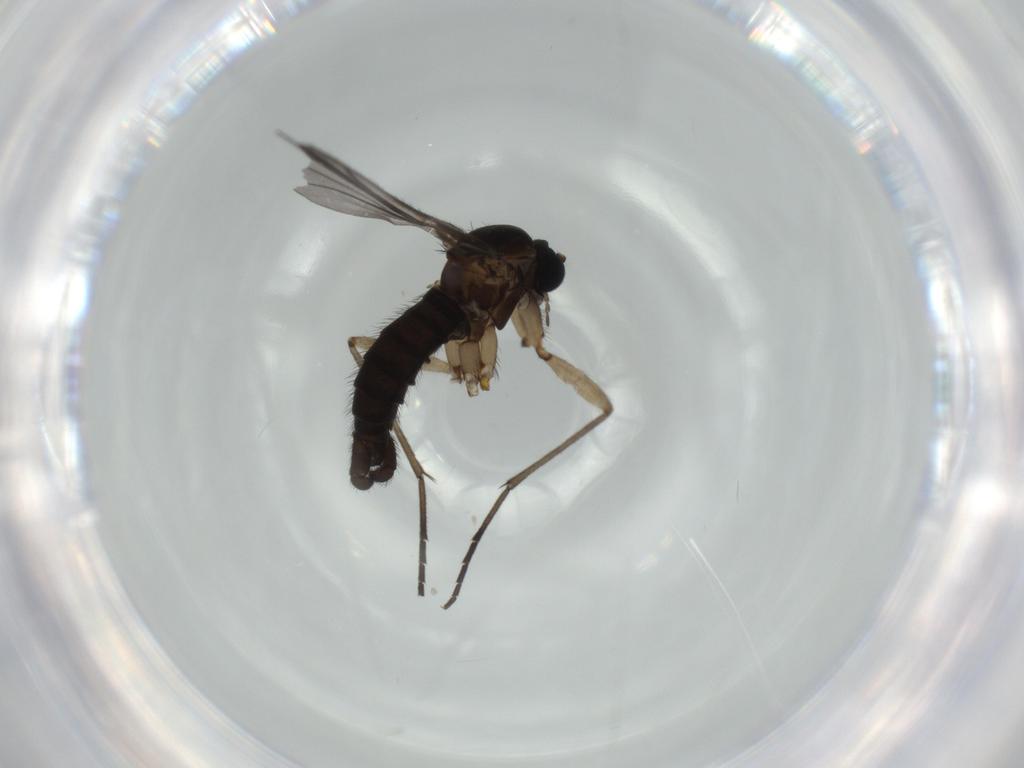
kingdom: Animalia
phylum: Arthropoda
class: Insecta
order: Diptera
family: Sciaridae
